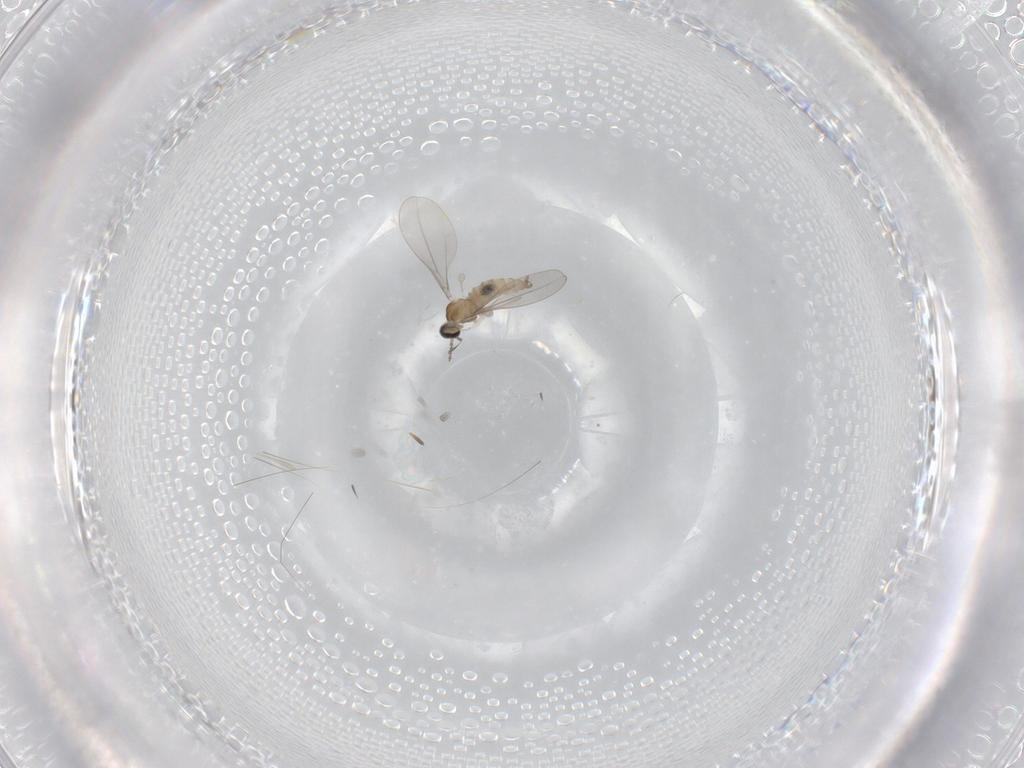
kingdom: Animalia
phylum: Arthropoda
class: Insecta
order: Diptera
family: Cecidomyiidae
